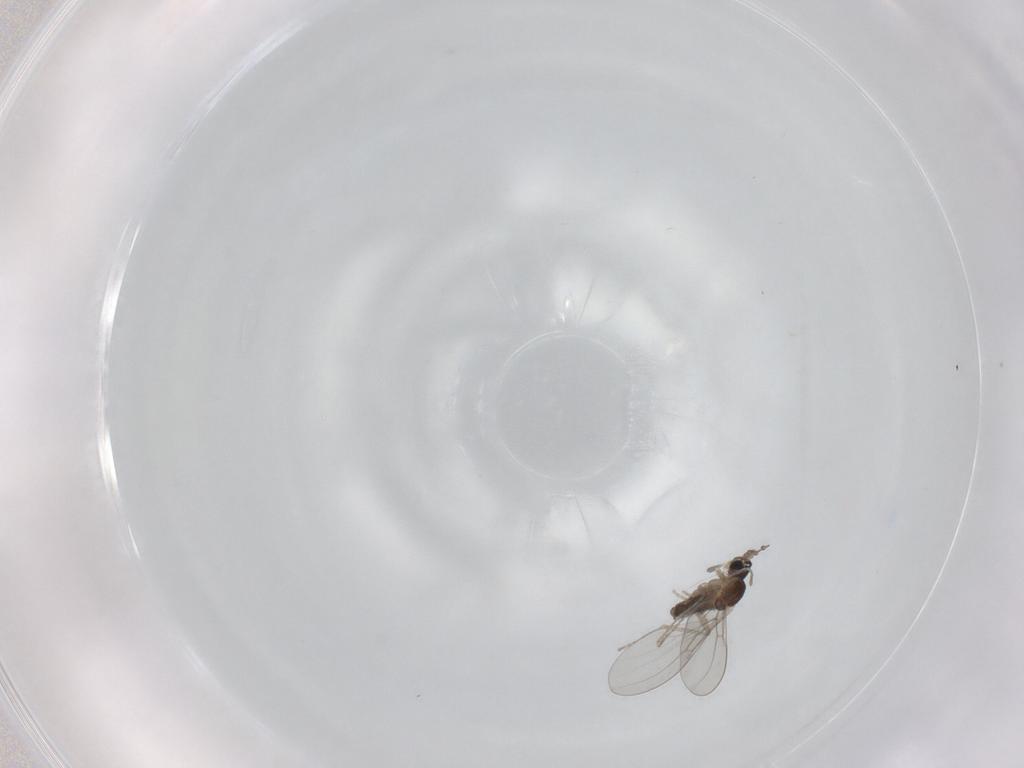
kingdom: Animalia
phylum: Arthropoda
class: Insecta
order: Diptera
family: Cecidomyiidae
